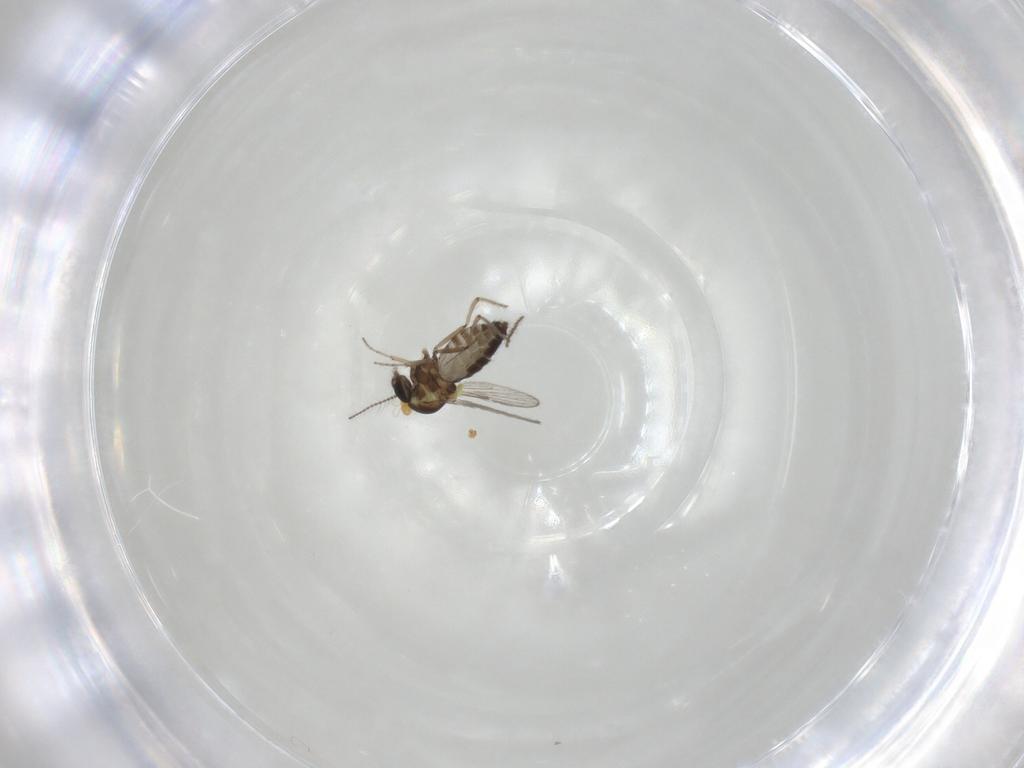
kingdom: Animalia
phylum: Arthropoda
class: Insecta
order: Diptera
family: Ceratopogonidae
